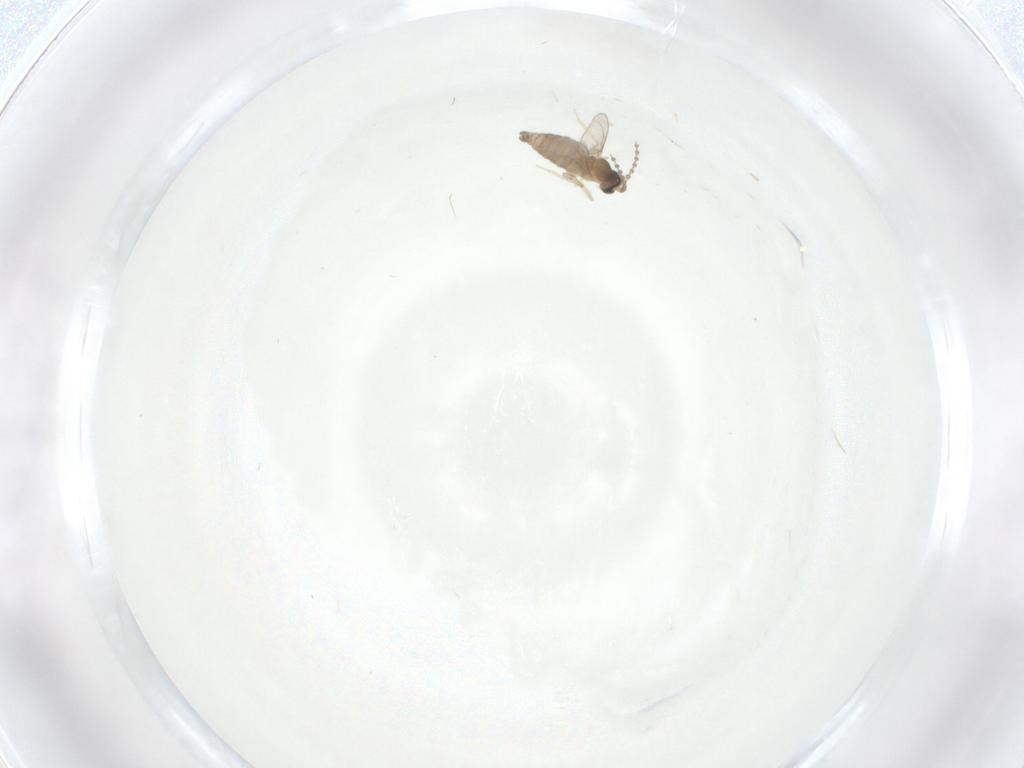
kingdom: Animalia
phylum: Arthropoda
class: Insecta
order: Diptera
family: Cecidomyiidae
